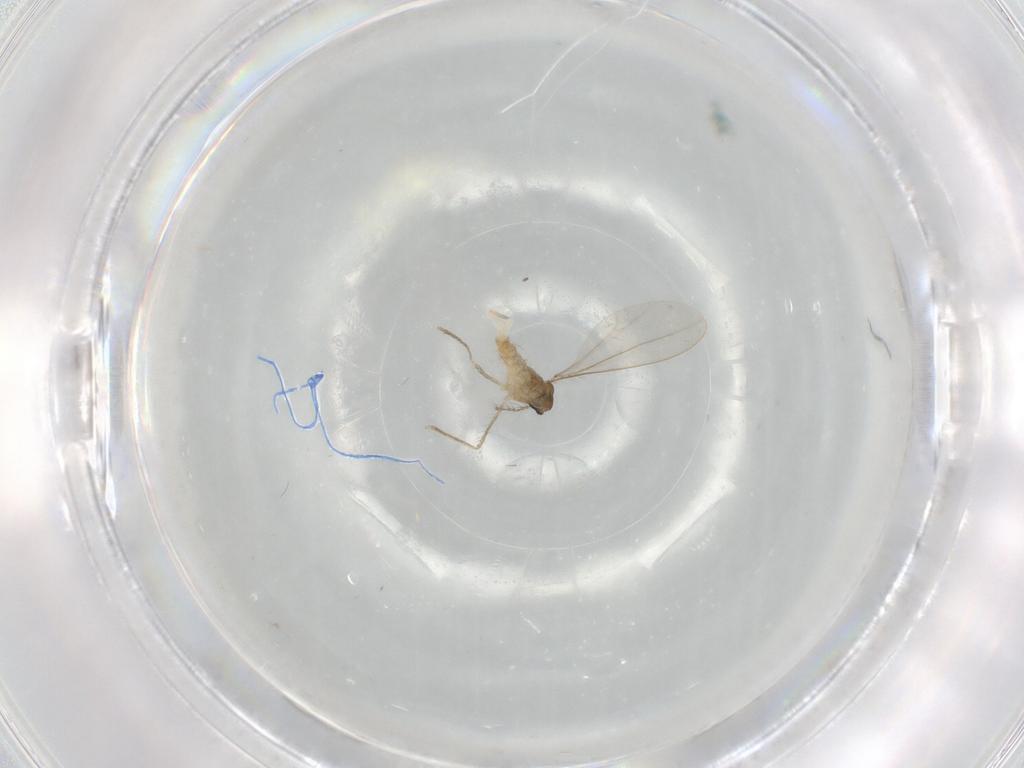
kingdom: Animalia
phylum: Arthropoda
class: Insecta
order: Diptera
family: Cecidomyiidae
